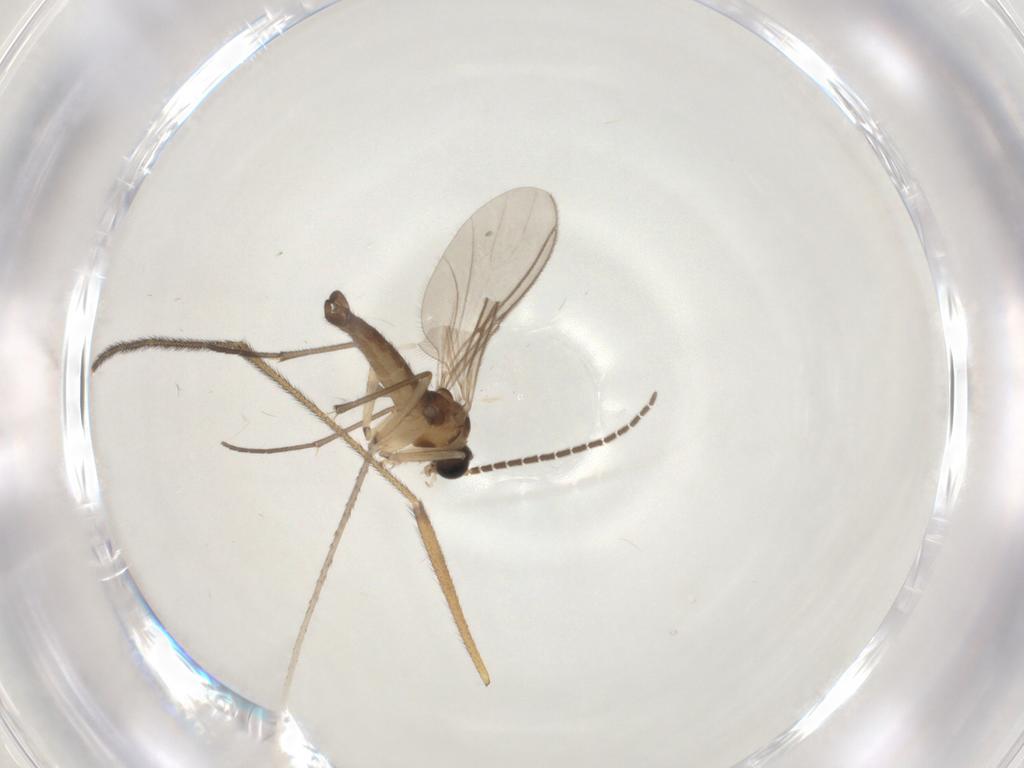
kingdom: Animalia
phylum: Arthropoda
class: Insecta
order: Diptera
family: Sciaridae
